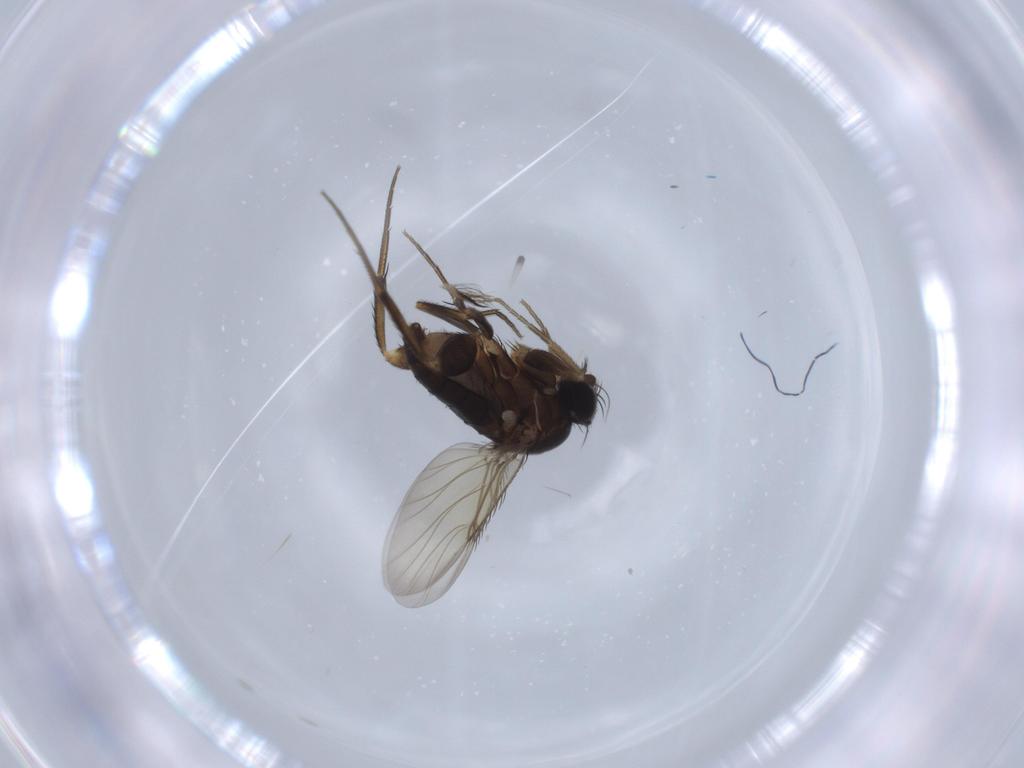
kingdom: Animalia
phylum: Arthropoda
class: Insecta
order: Diptera
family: Phoridae
